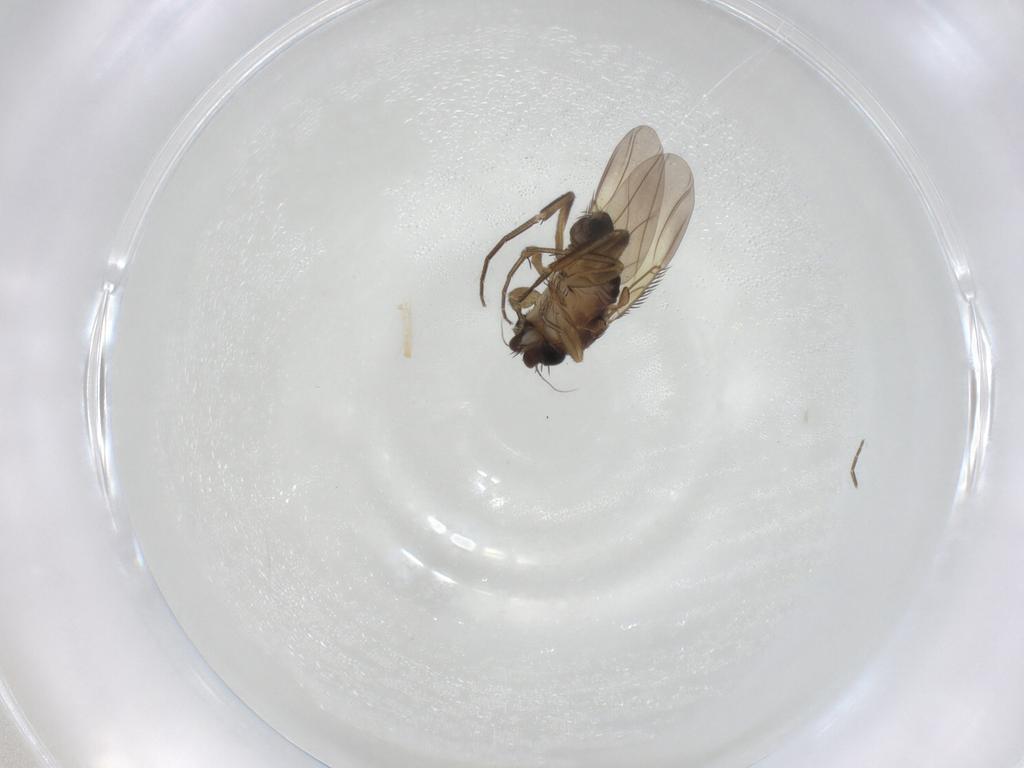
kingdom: Animalia
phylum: Arthropoda
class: Insecta
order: Diptera
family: Phoridae
